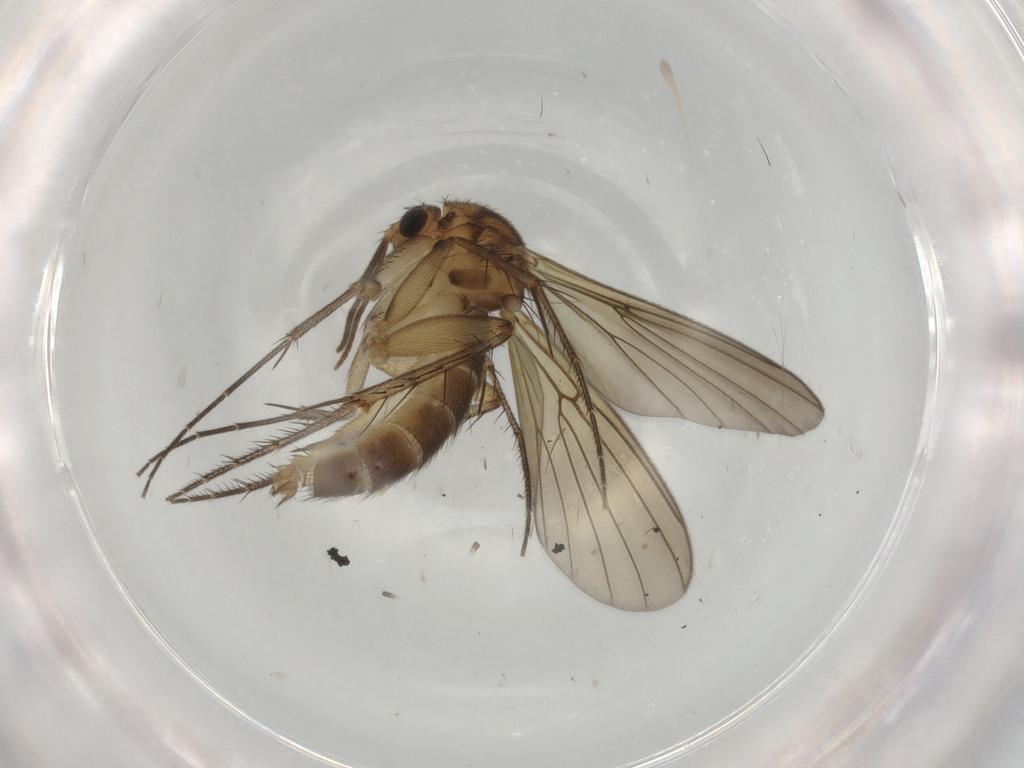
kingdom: Animalia
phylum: Arthropoda
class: Insecta
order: Diptera
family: Mycetophilidae
